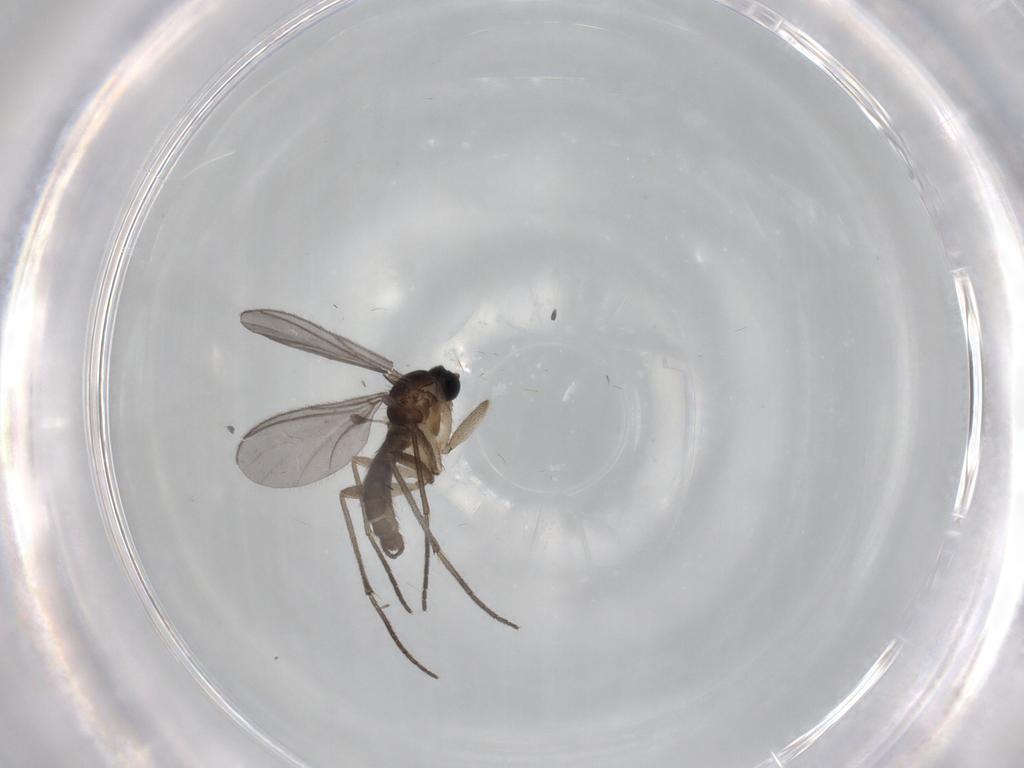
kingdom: Animalia
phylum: Arthropoda
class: Insecta
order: Diptera
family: Sciaridae
